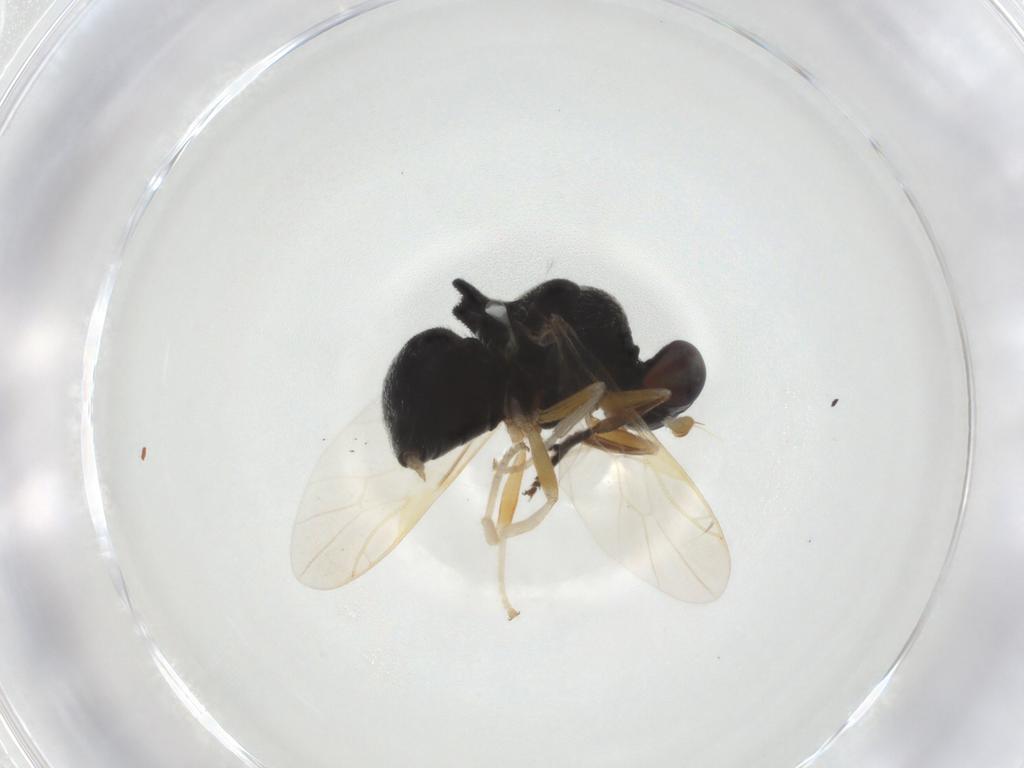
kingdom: Animalia
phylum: Arthropoda
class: Insecta
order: Diptera
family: Stratiomyidae
